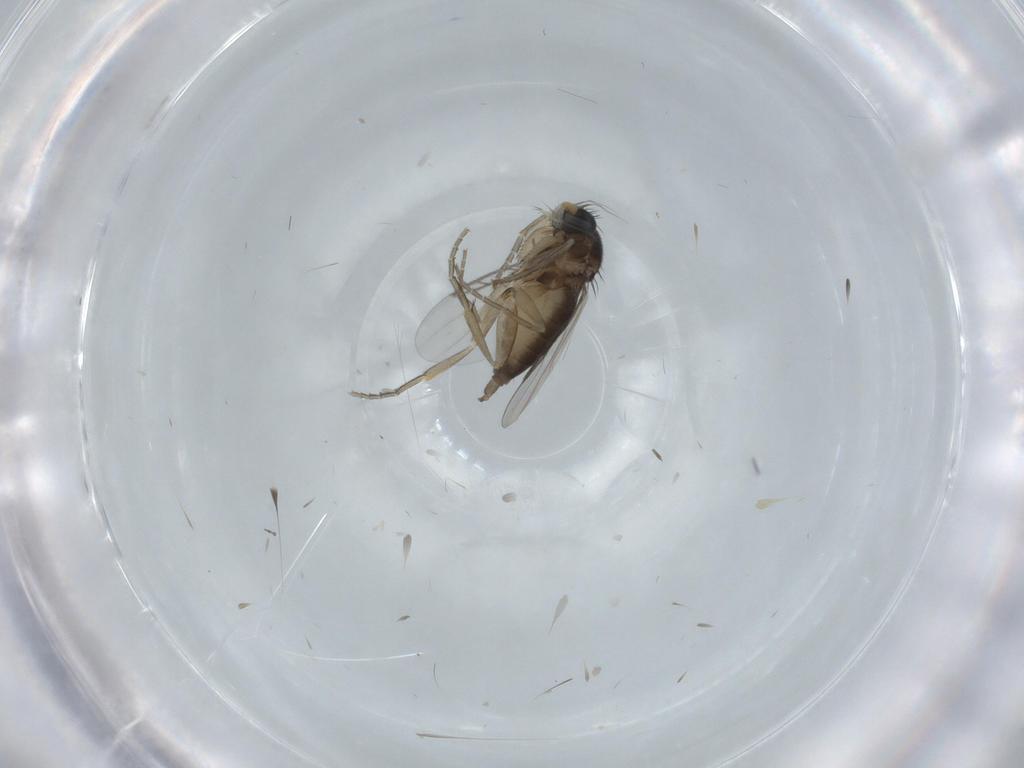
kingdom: Animalia
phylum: Arthropoda
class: Insecta
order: Diptera
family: Phoridae
